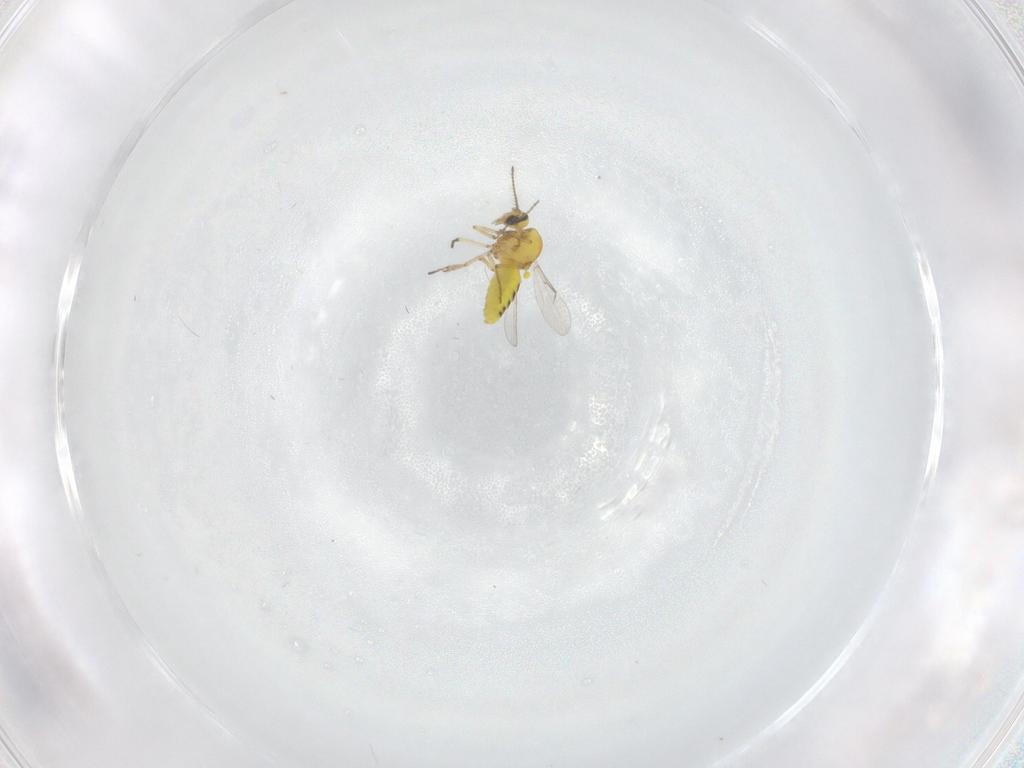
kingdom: Animalia
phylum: Arthropoda
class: Insecta
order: Diptera
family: Ceratopogonidae
